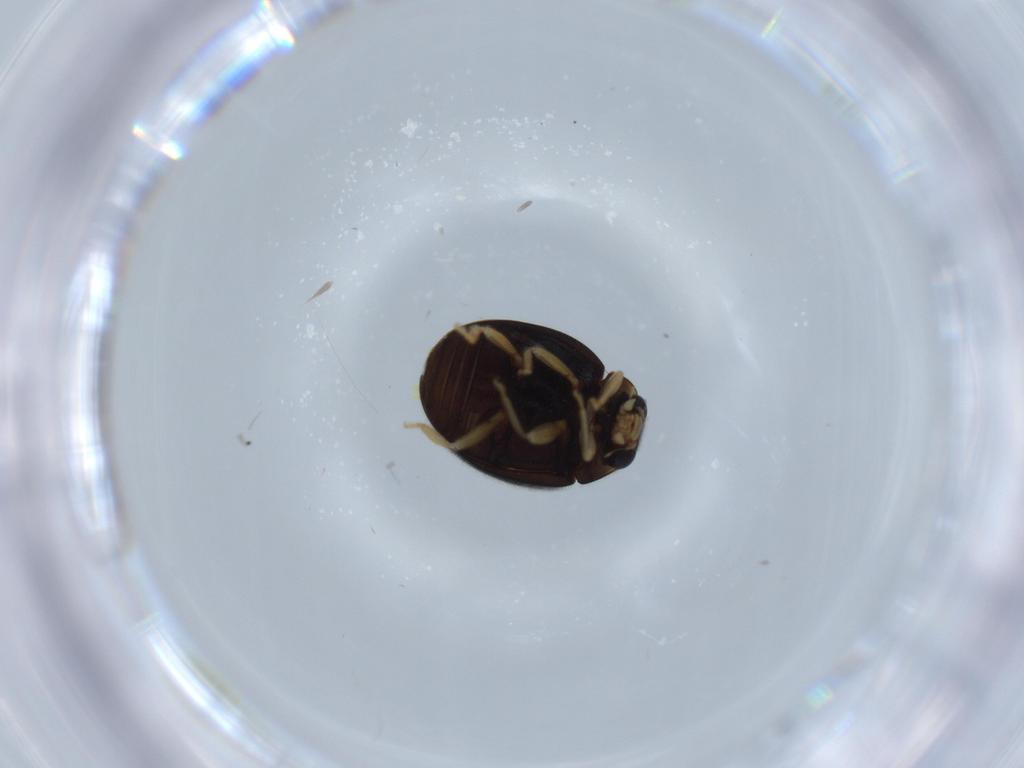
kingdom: Animalia
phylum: Arthropoda
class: Insecta
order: Coleoptera
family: Coccinellidae
